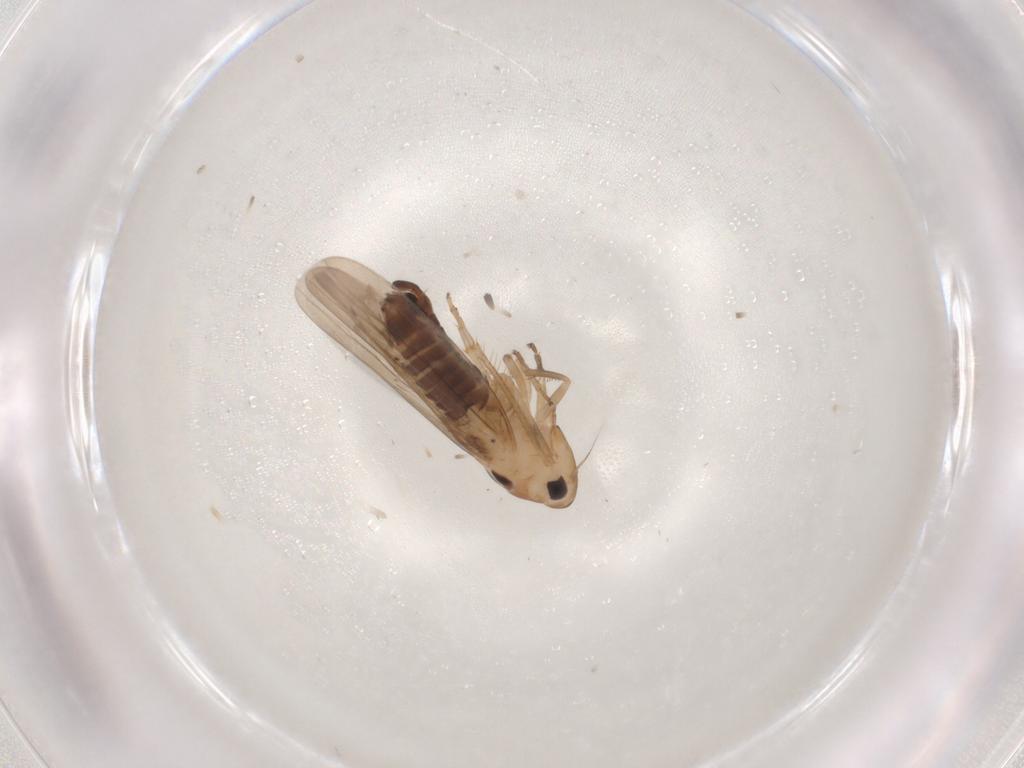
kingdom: Animalia
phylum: Arthropoda
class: Insecta
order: Hemiptera
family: Cicadellidae
